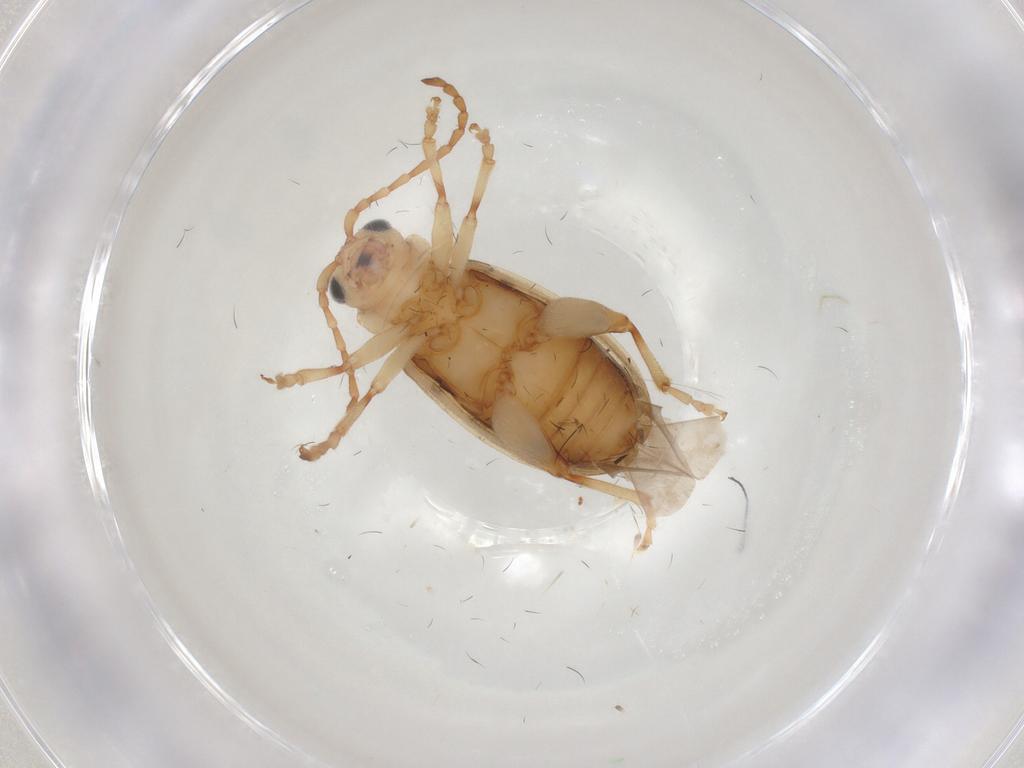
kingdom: Animalia
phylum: Arthropoda
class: Insecta
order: Coleoptera
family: Chrysomelidae
